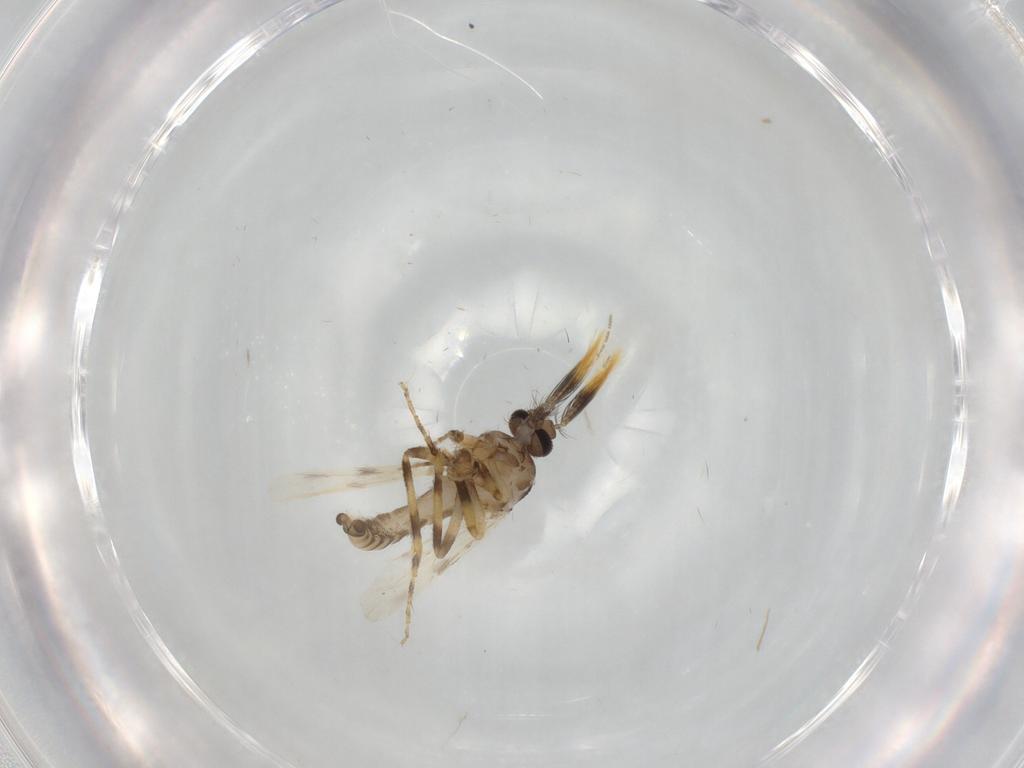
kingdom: Animalia
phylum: Arthropoda
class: Insecta
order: Diptera
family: Ceratopogonidae
